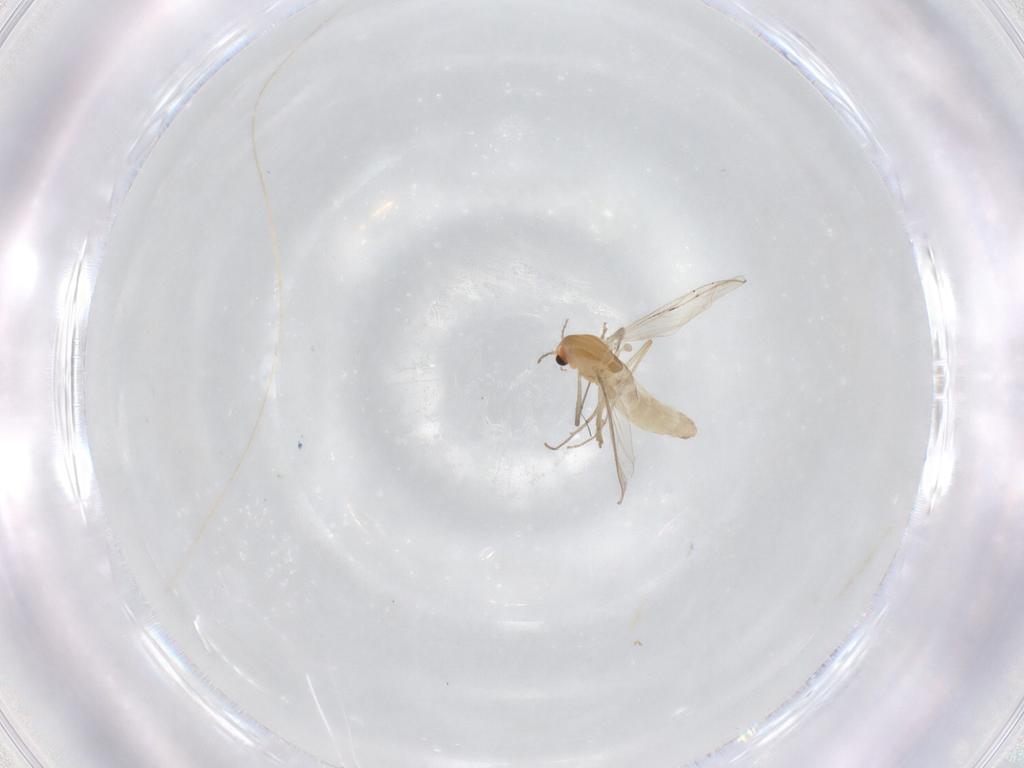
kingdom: Animalia
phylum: Arthropoda
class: Insecta
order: Diptera
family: Chironomidae
